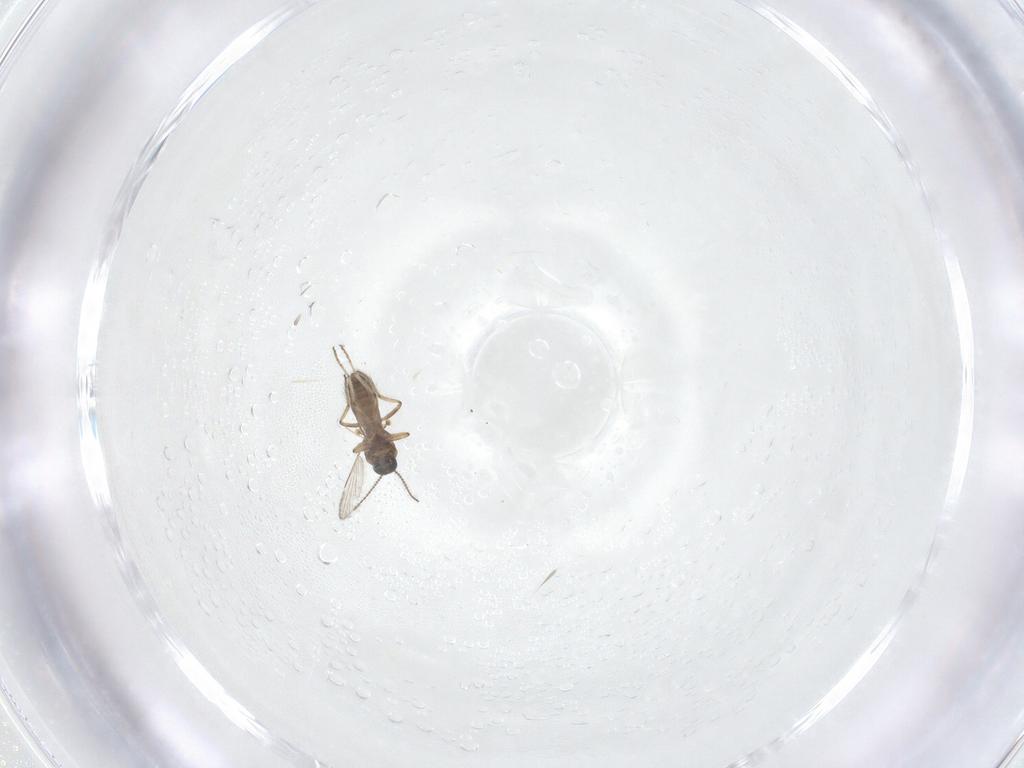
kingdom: Animalia
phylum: Arthropoda
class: Insecta
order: Diptera
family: Ceratopogonidae
